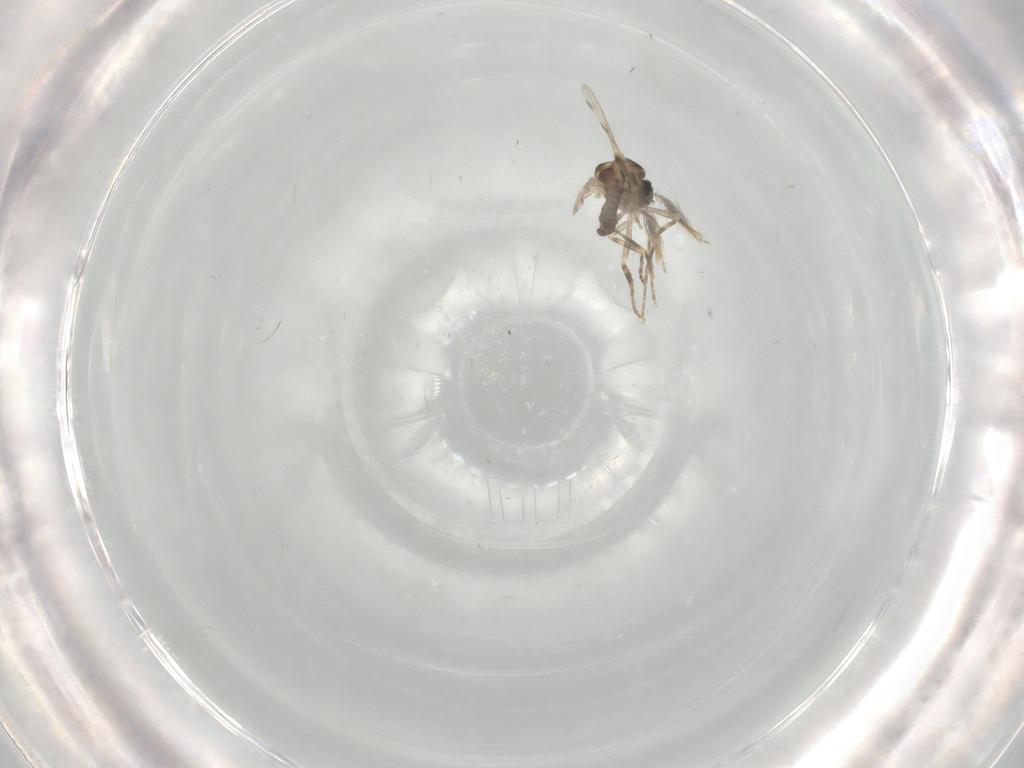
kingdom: Animalia
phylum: Arthropoda
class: Insecta
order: Diptera
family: Ceratopogonidae
